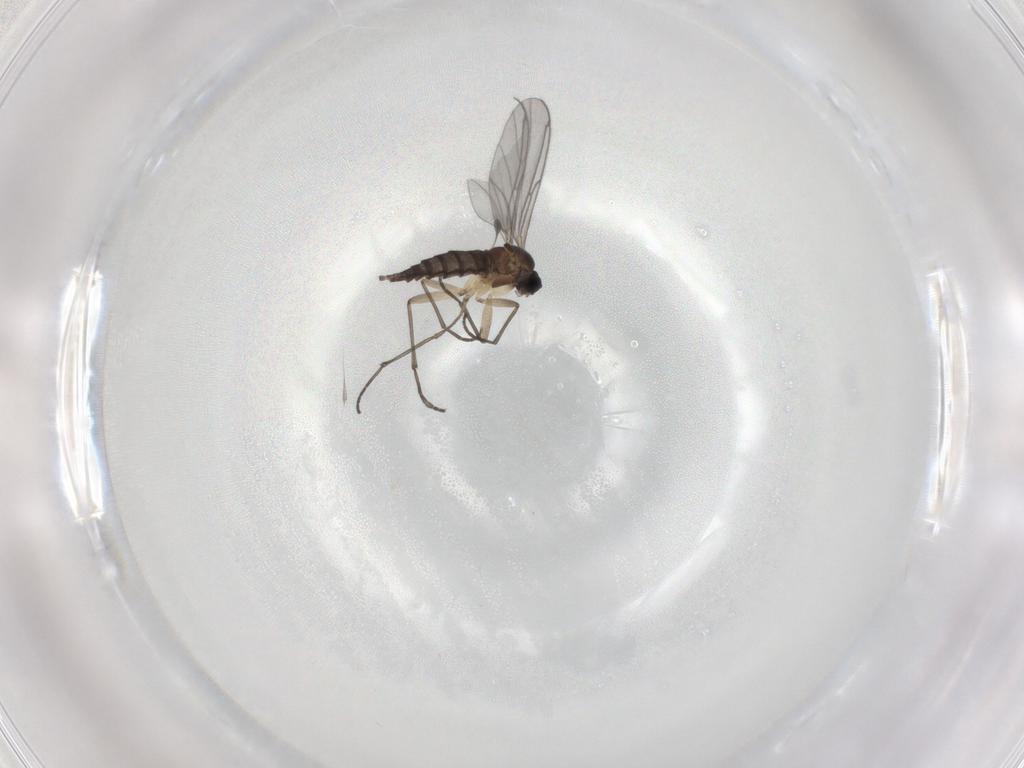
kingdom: Animalia
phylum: Arthropoda
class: Insecta
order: Diptera
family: Sciaridae
